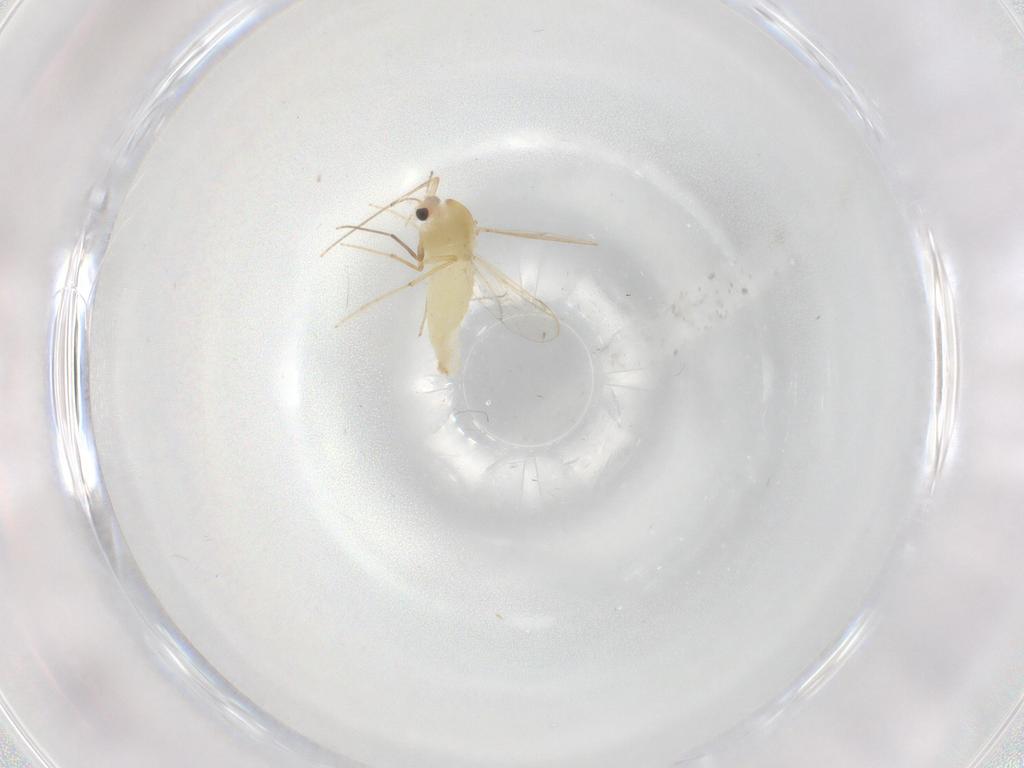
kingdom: Animalia
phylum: Arthropoda
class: Insecta
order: Diptera
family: Chironomidae
